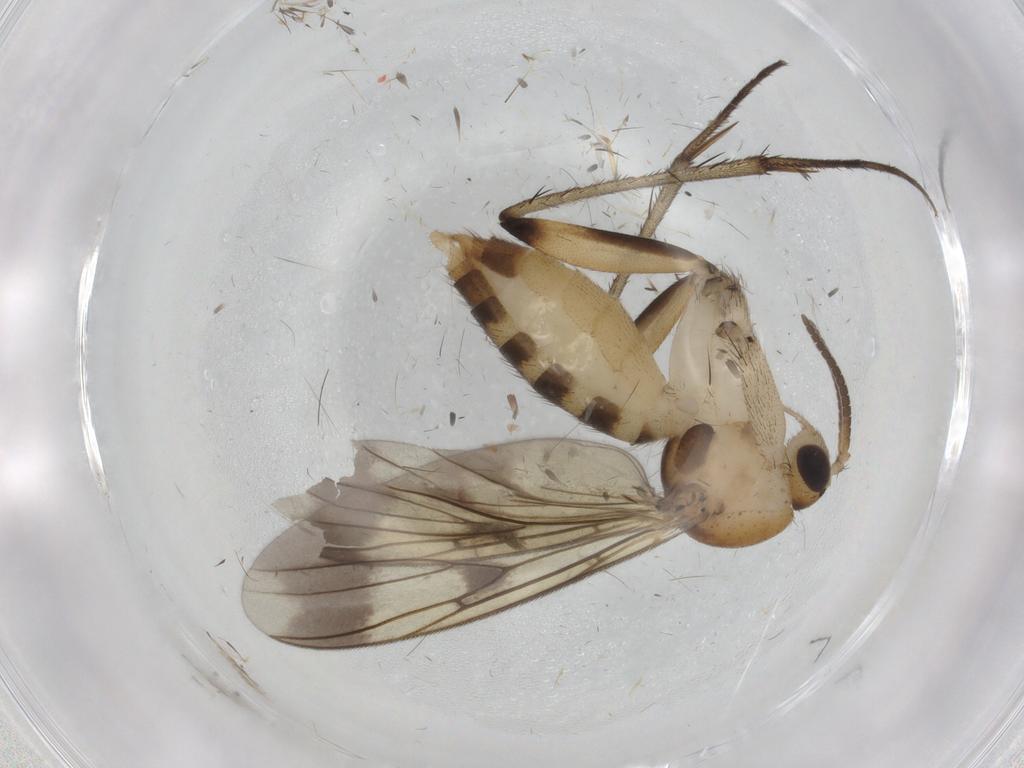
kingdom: Animalia
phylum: Arthropoda
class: Insecta
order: Diptera
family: Mycetophilidae
